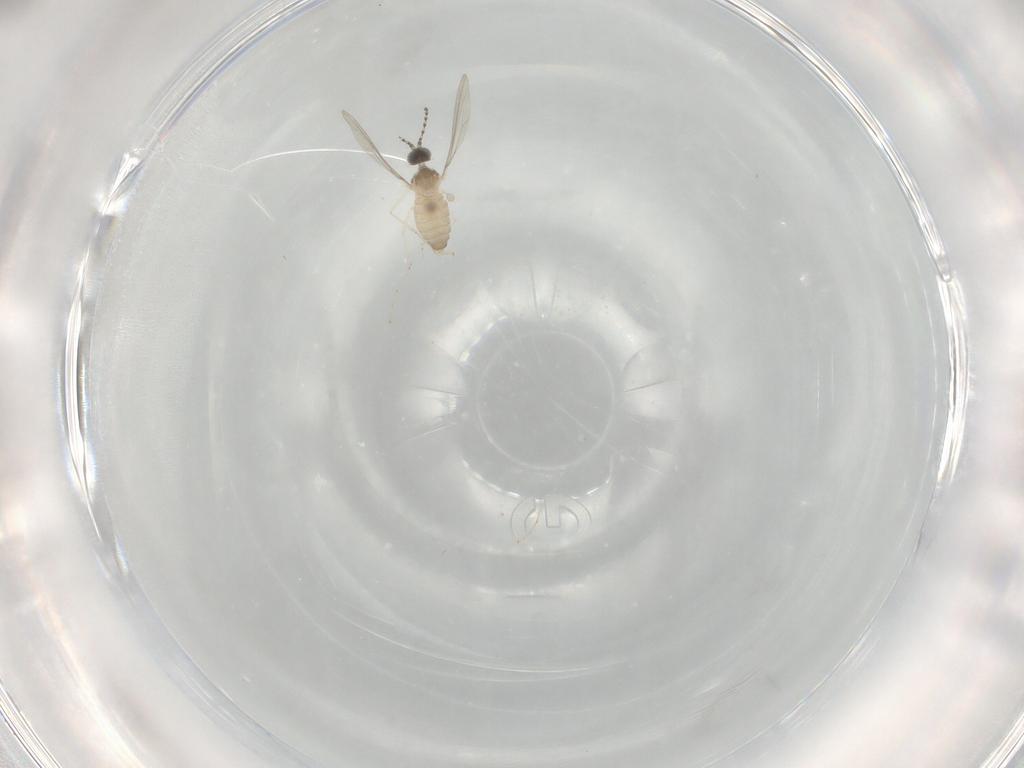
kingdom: Animalia
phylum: Arthropoda
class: Insecta
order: Diptera
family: Cecidomyiidae
